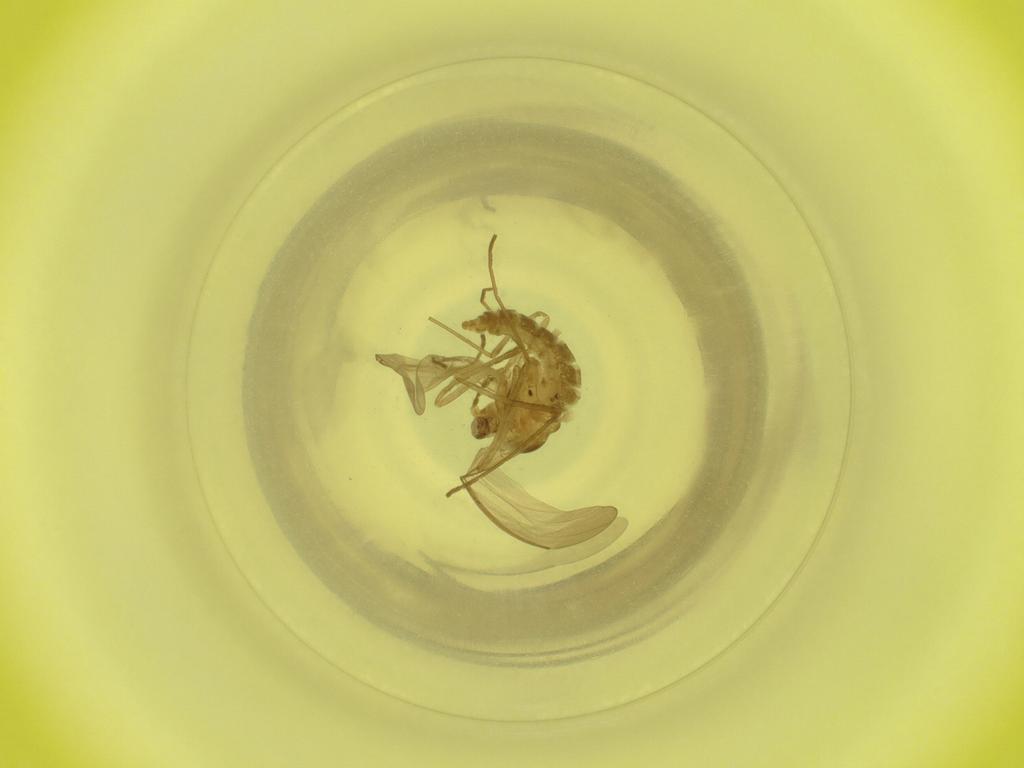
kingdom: Animalia
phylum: Arthropoda
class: Insecta
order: Diptera
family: Cecidomyiidae
